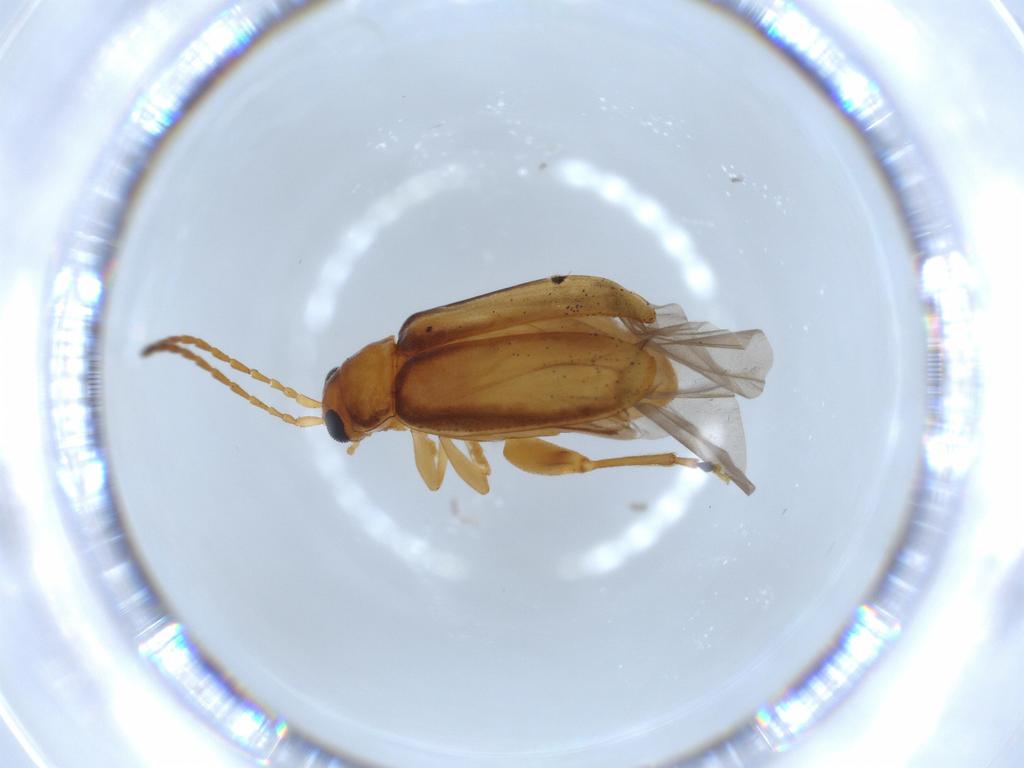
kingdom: Animalia
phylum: Arthropoda
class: Insecta
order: Coleoptera
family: Chrysomelidae
